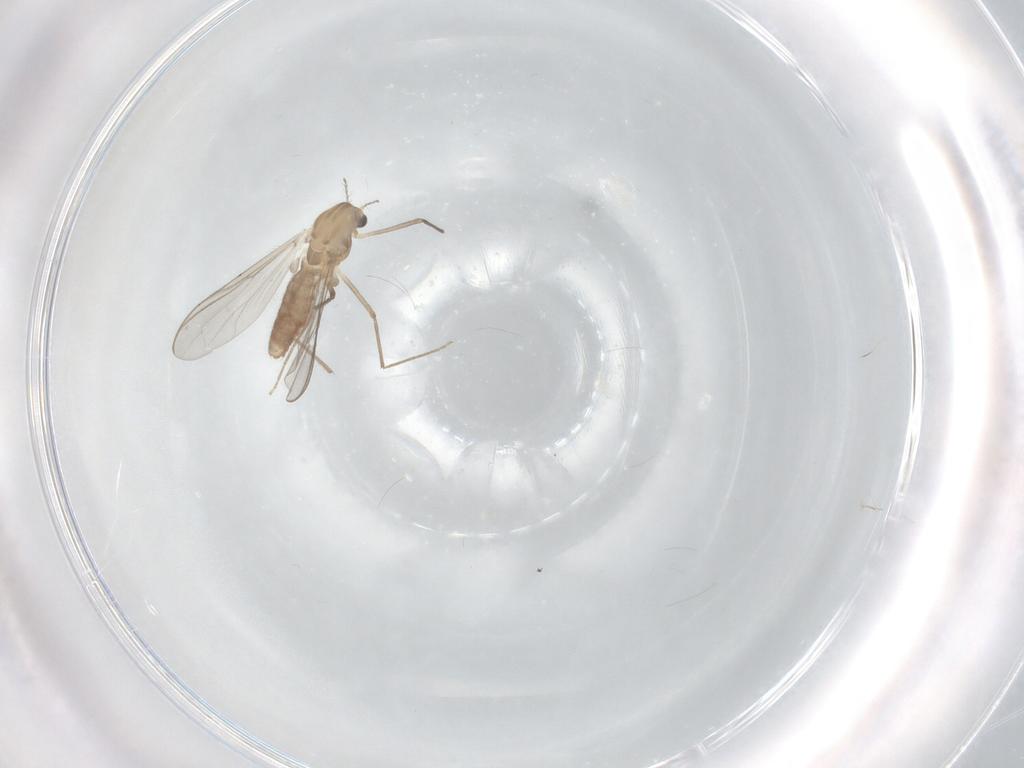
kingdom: Animalia
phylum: Arthropoda
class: Insecta
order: Diptera
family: Chironomidae
